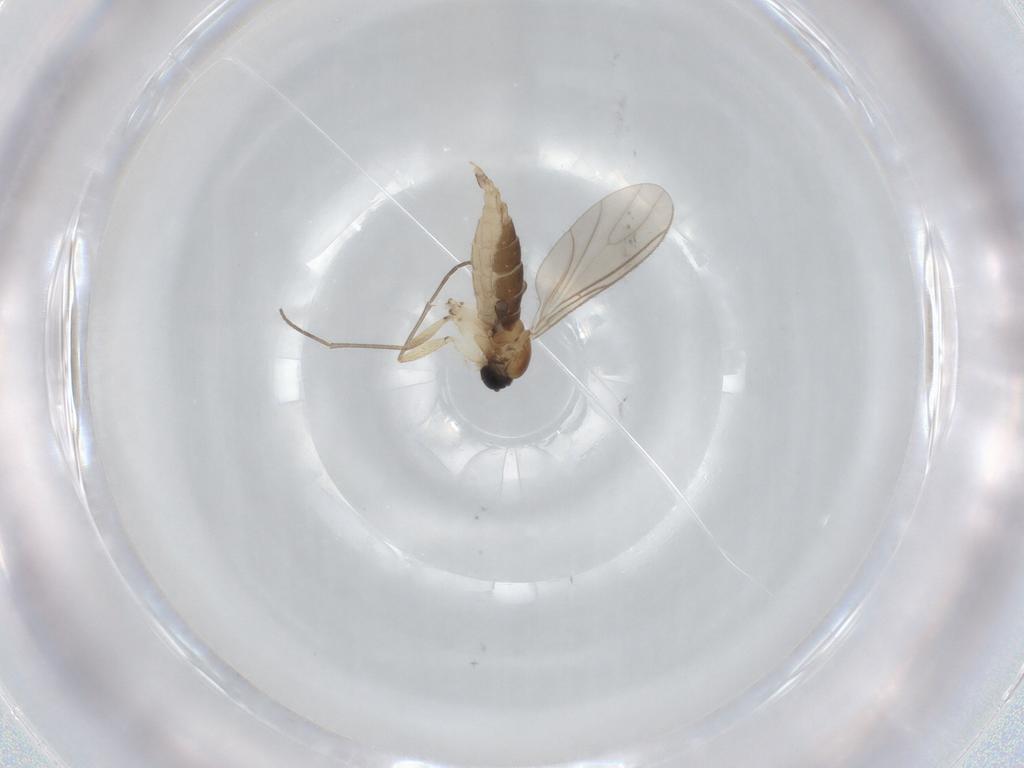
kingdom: Animalia
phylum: Arthropoda
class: Insecta
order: Diptera
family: Sciaridae
